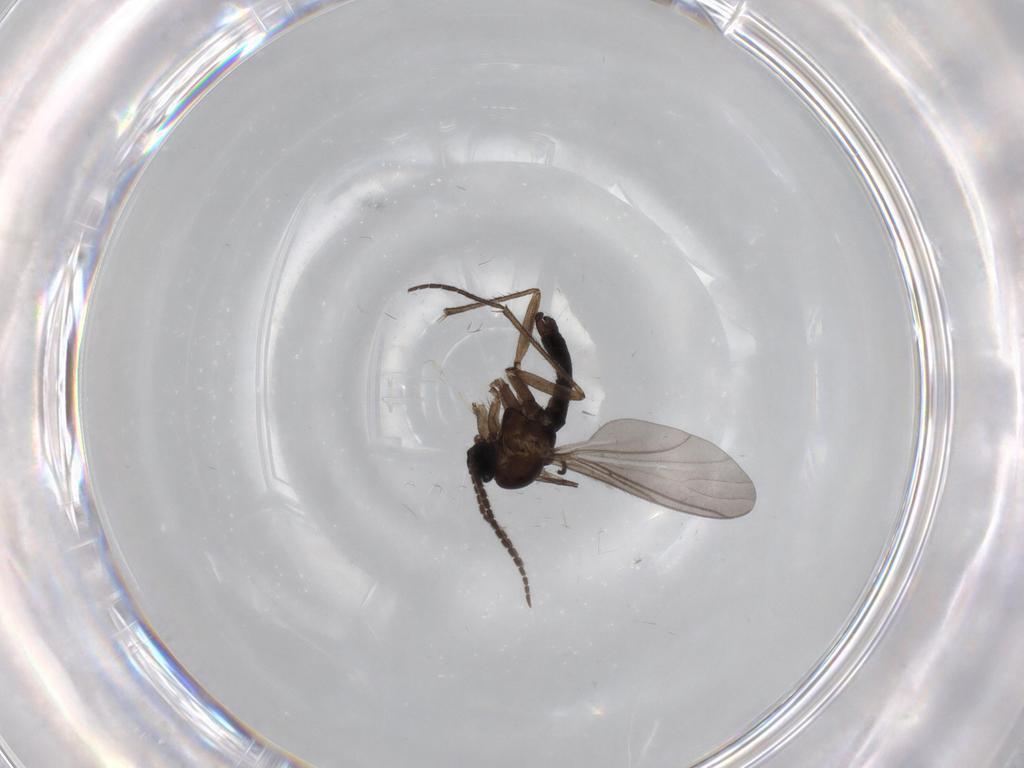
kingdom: Animalia
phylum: Arthropoda
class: Insecta
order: Diptera
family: Sciaridae
